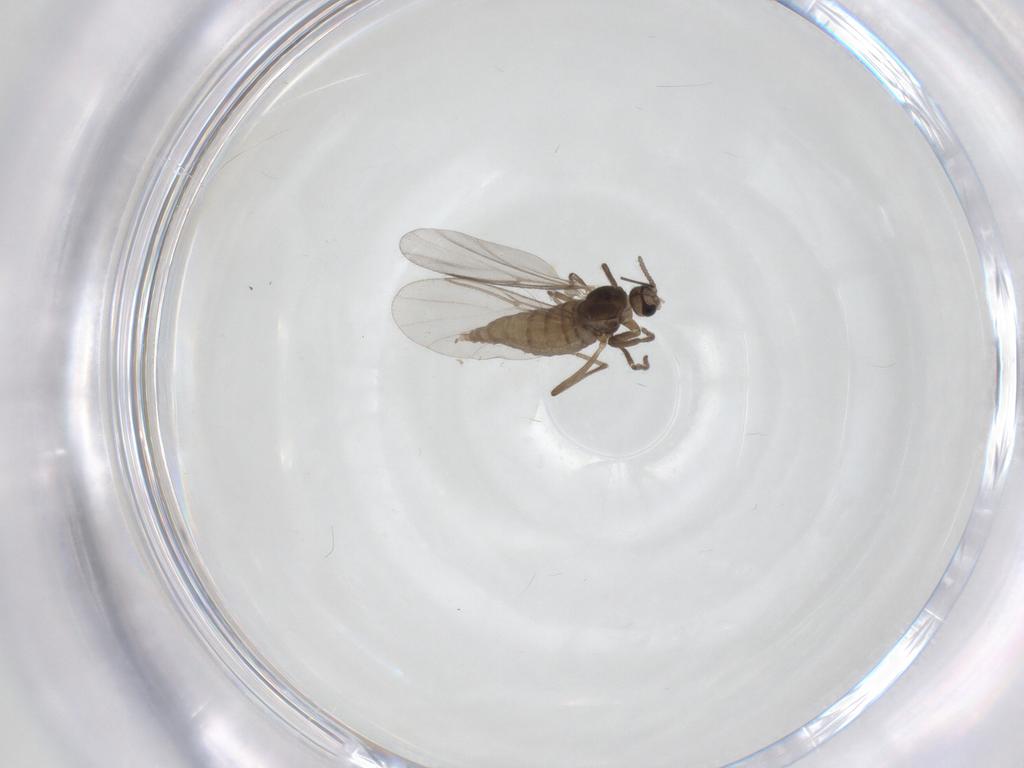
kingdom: Animalia
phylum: Arthropoda
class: Insecta
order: Diptera
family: Cecidomyiidae
